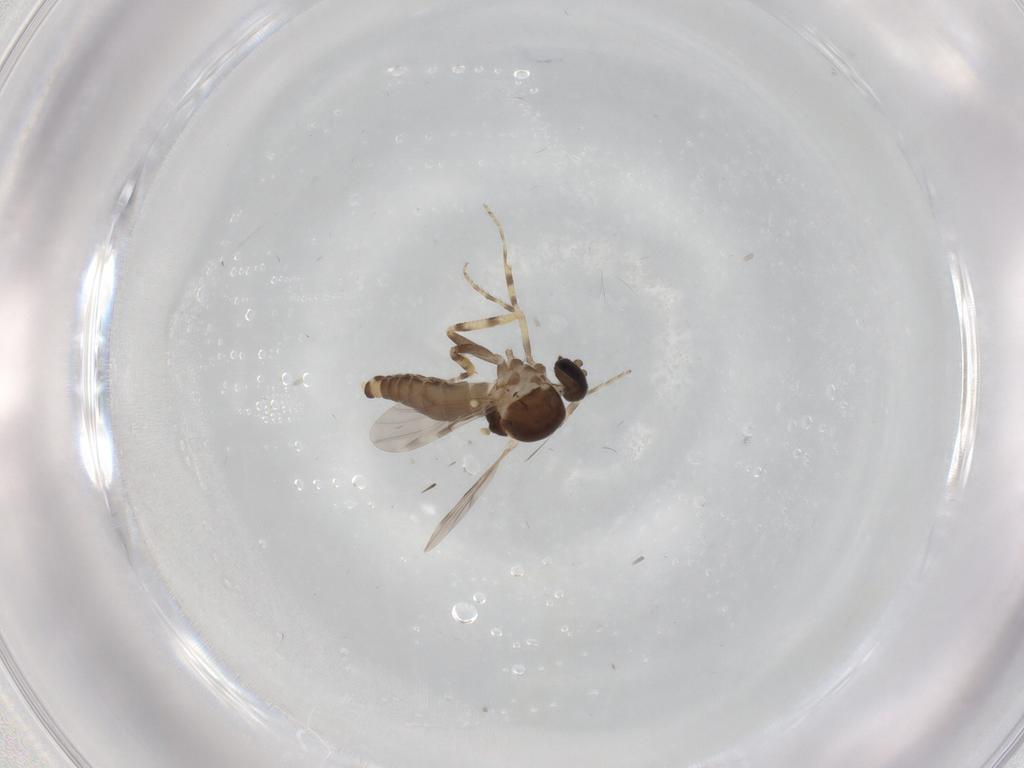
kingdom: Animalia
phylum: Arthropoda
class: Insecta
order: Diptera
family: Ceratopogonidae
